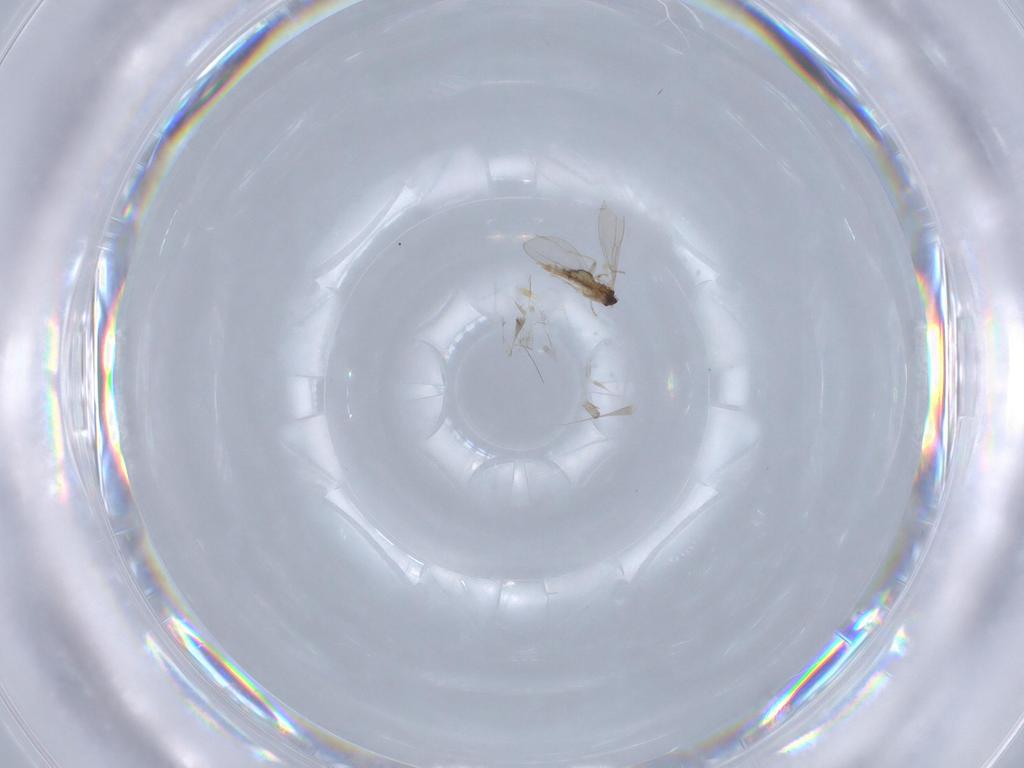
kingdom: Animalia
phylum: Arthropoda
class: Insecta
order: Diptera
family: Cecidomyiidae
